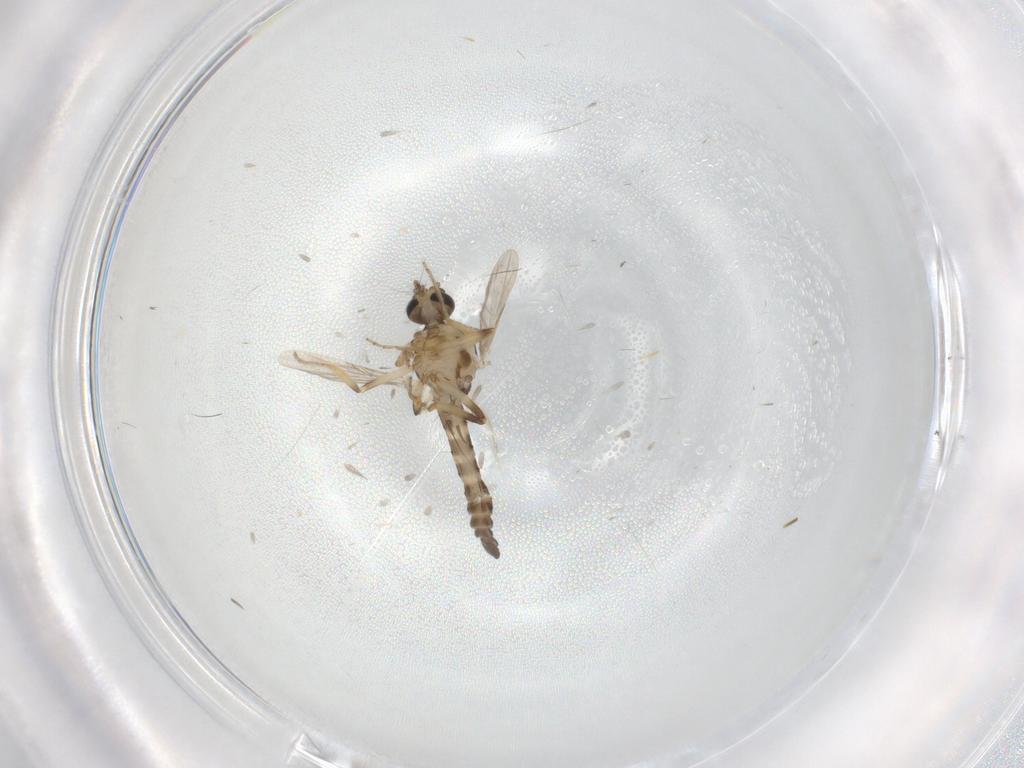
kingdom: Animalia
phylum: Arthropoda
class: Insecta
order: Diptera
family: Ceratopogonidae
